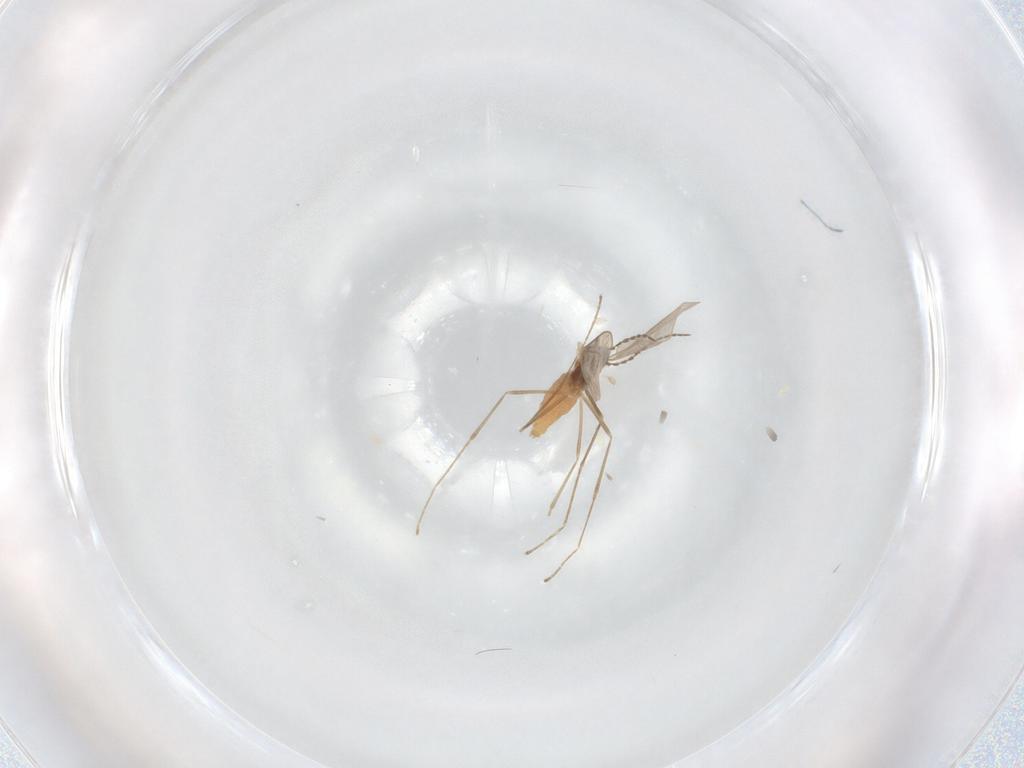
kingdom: Animalia
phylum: Arthropoda
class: Insecta
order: Diptera
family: Cecidomyiidae
